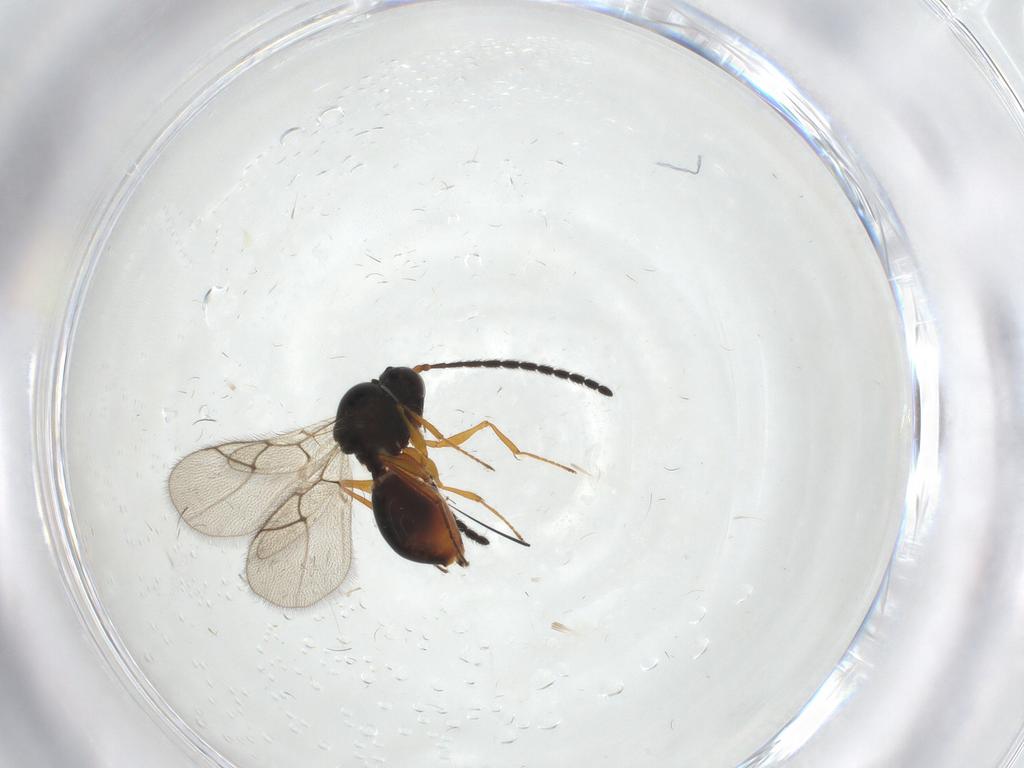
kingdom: Animalia
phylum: Arthropoda
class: Insecta
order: Hymenoptera
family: Figitidae
